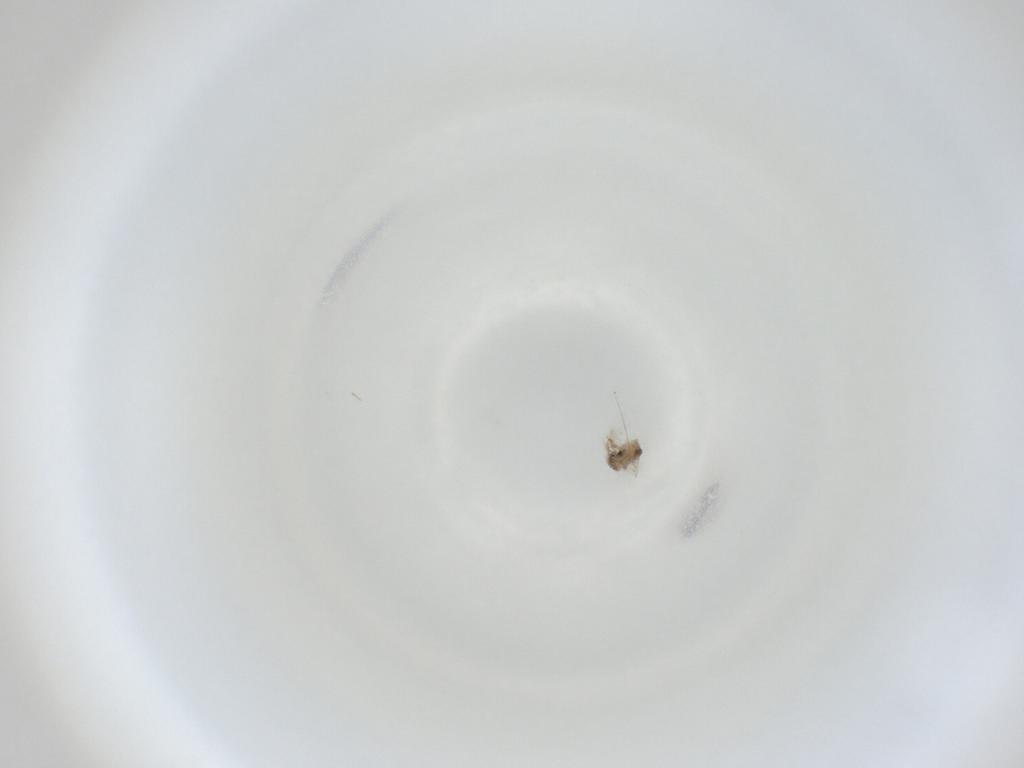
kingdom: Animalia
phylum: Arthropoda
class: Insecta
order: Diptera
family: Cecidomyiidae
